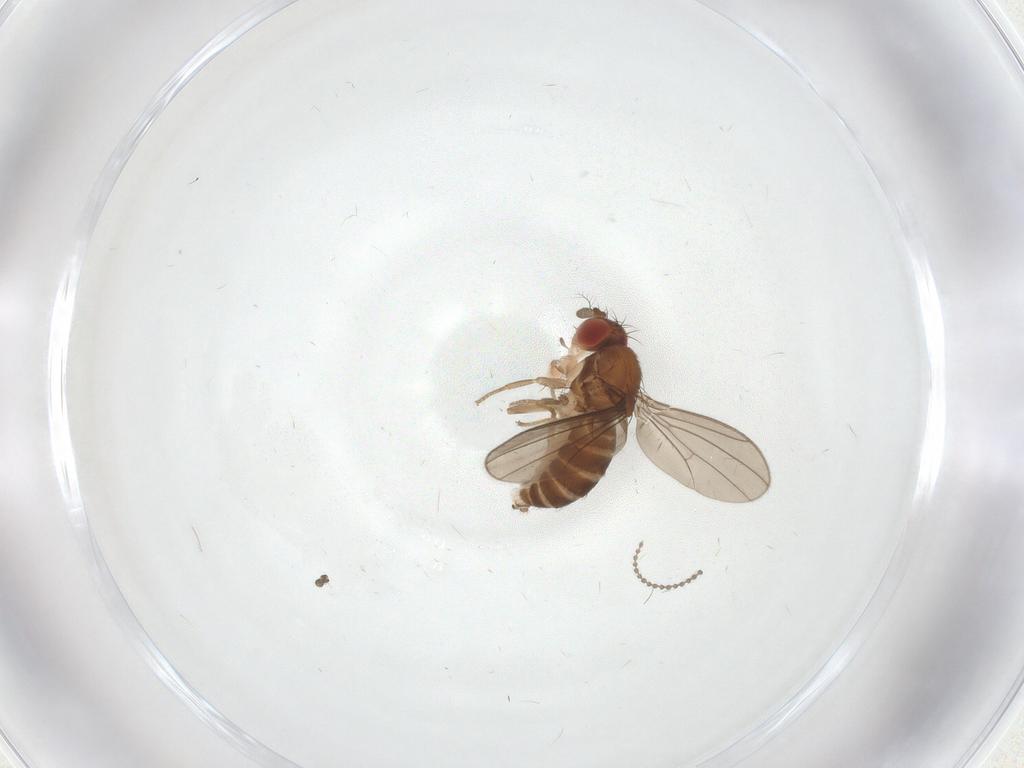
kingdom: Animalia
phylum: Arthropoda
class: Insecta
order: Diptera
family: Drosophilidae
